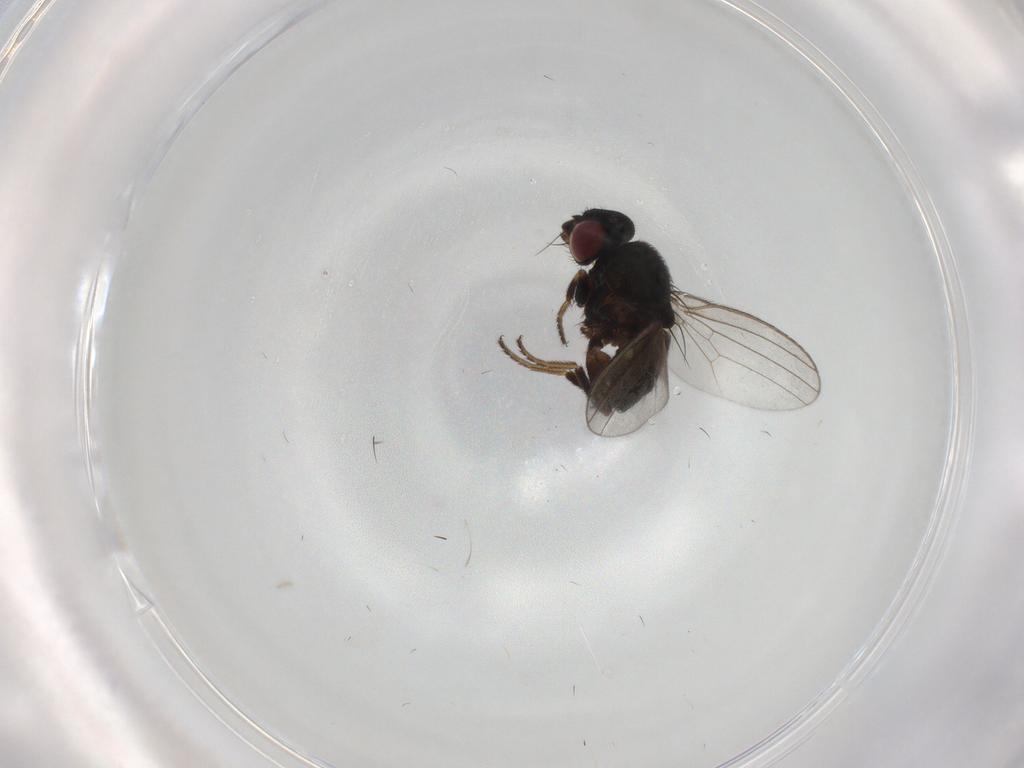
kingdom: Animalia
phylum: Arthropoda
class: Insecta
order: Diptera
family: Milichiidae
